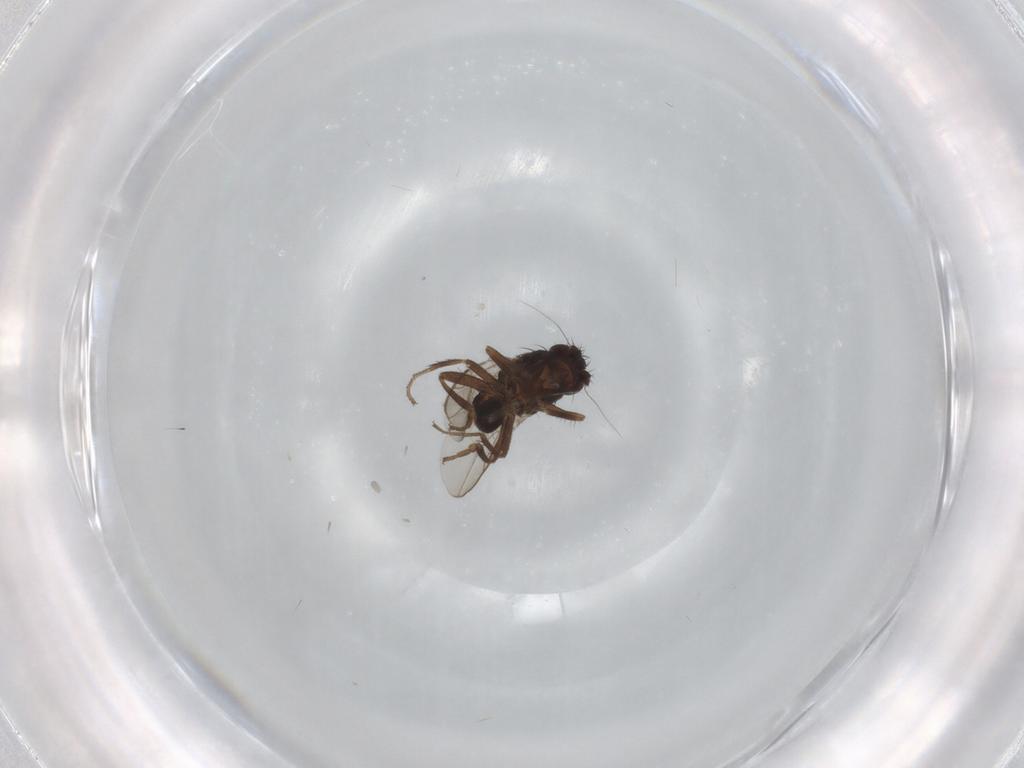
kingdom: Animalia
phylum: Arthropoda
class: Insecta
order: Diptera
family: Sphaeroceridae
